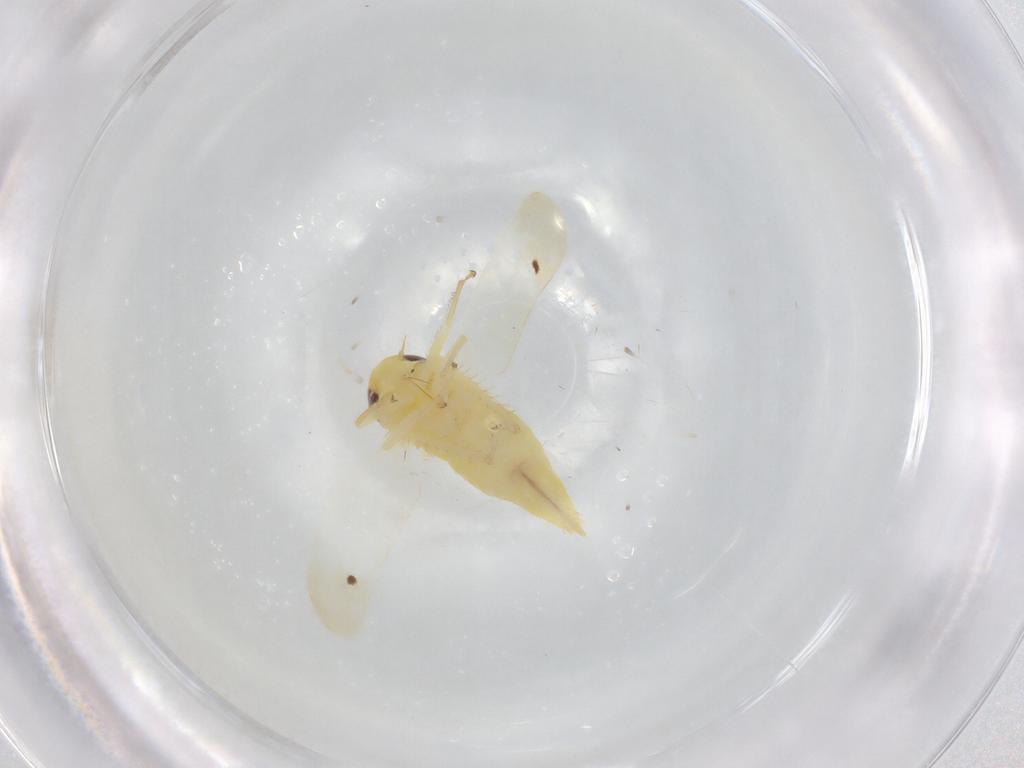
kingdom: Animalia
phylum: Arthropoda
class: Insecta
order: Hemiptera
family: Cicadellidae
